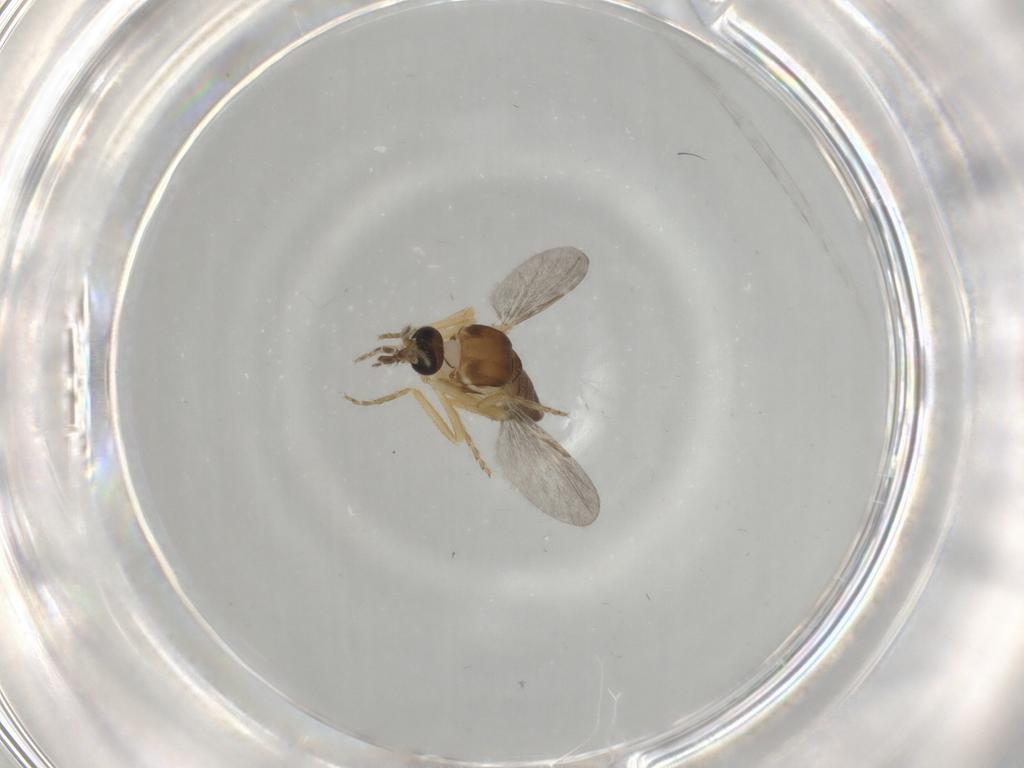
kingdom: Animalia
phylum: Arthropoda
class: Insecta
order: Diptera
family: Ceratopogonidae
